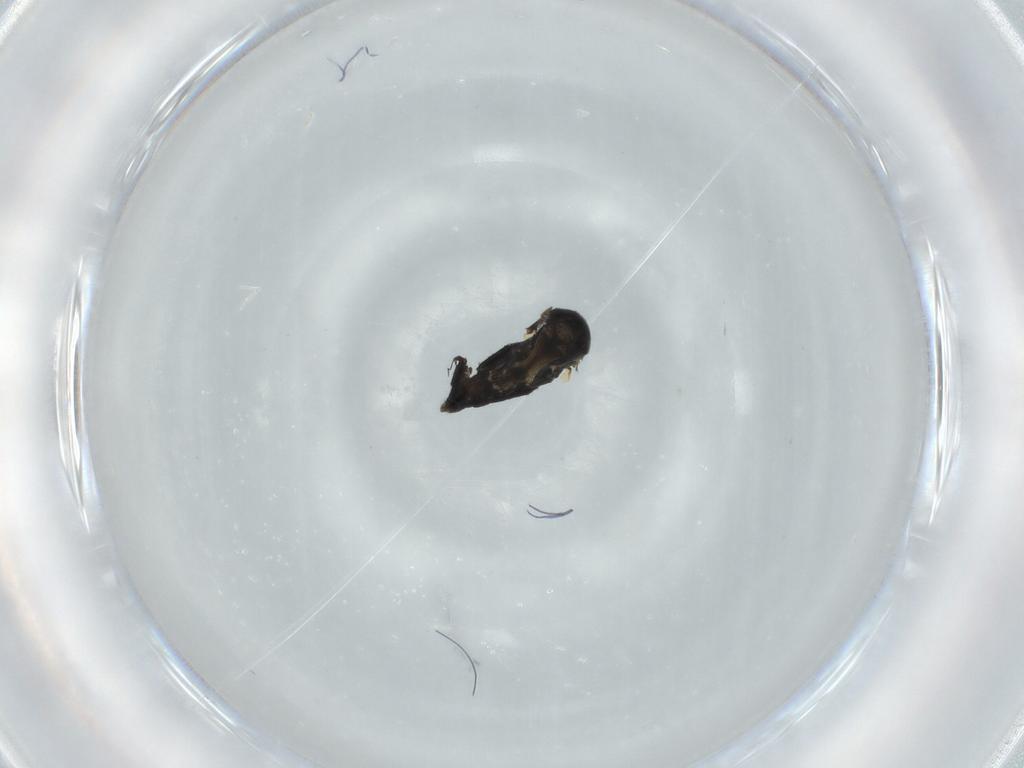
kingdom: Animalia
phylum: Arthropoda
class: Insecta
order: Diptera
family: Phoridae
